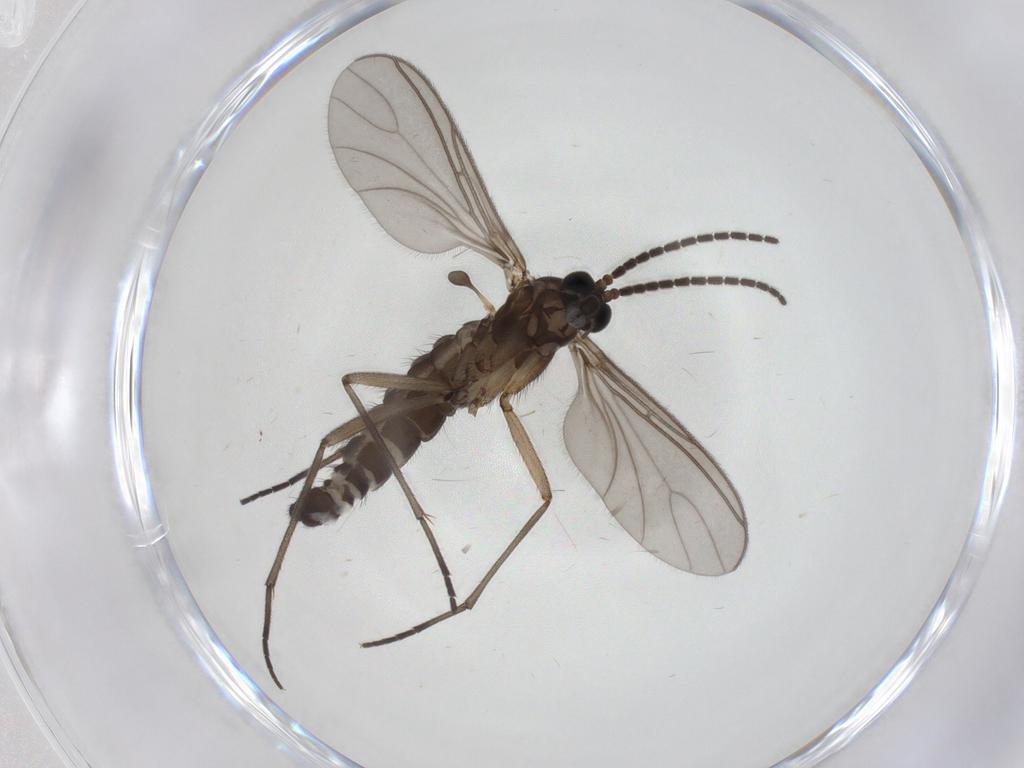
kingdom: Animalia
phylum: Arthropoda
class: Insecta
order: Diptera
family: Sciaridae
